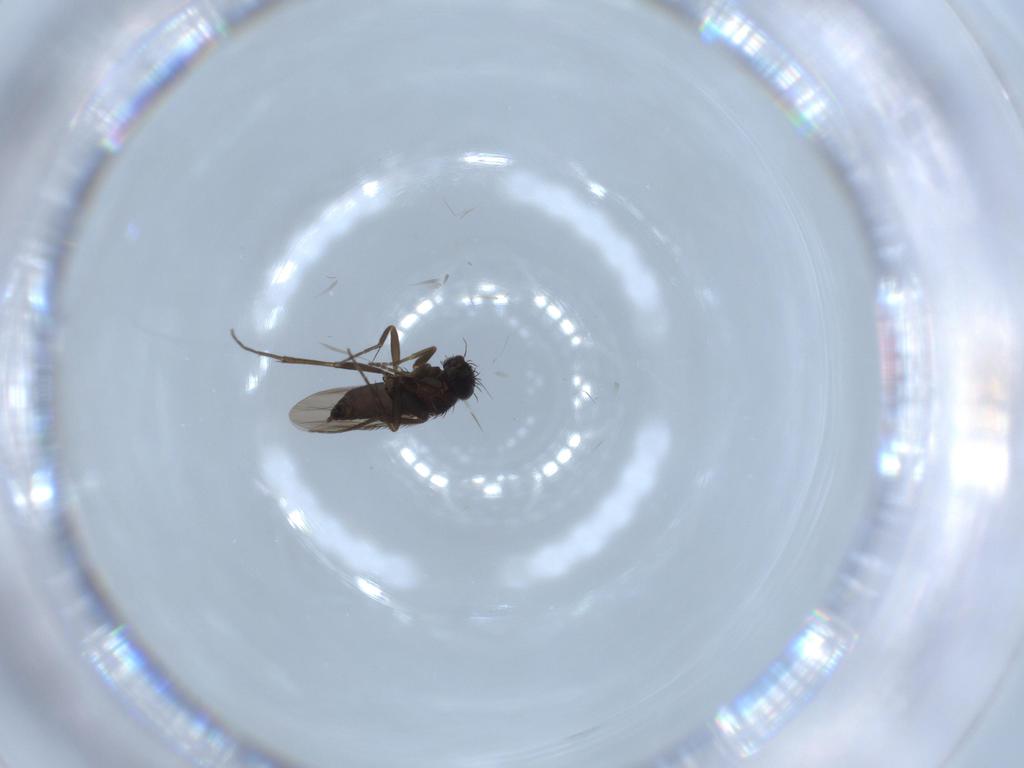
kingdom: Animalia
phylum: Arthropoda
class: Insecta
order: Diptera
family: Phoridae
